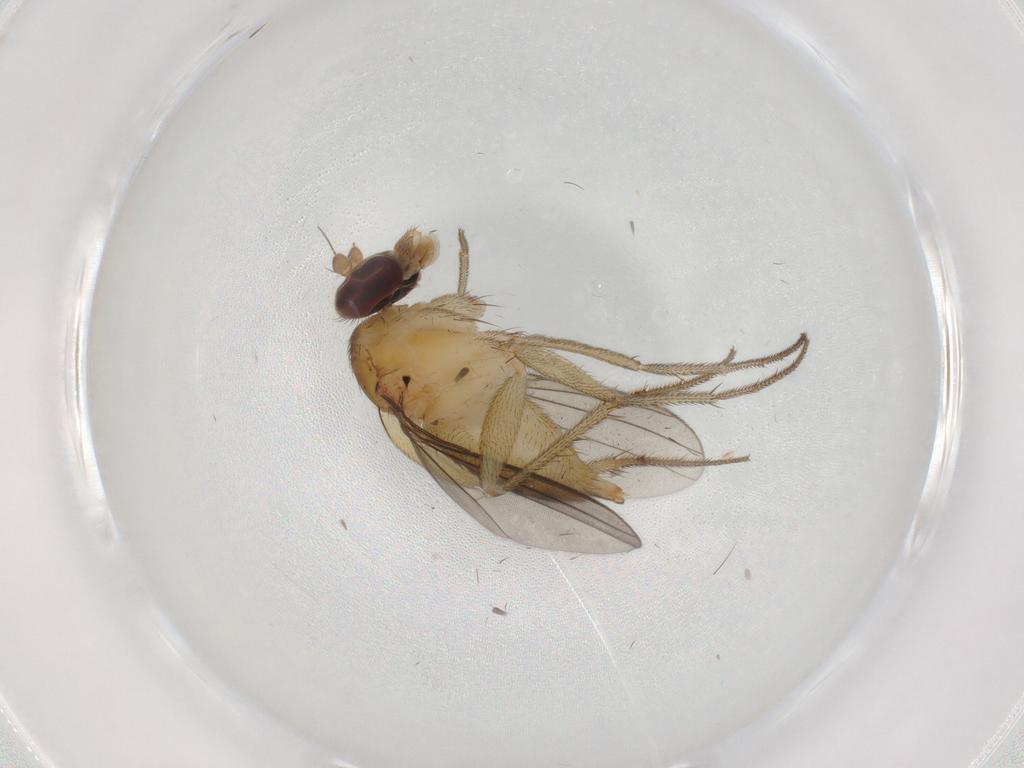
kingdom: Animalia
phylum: Arthropoda
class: Insecta
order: Diptera
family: Dolichopodidae
